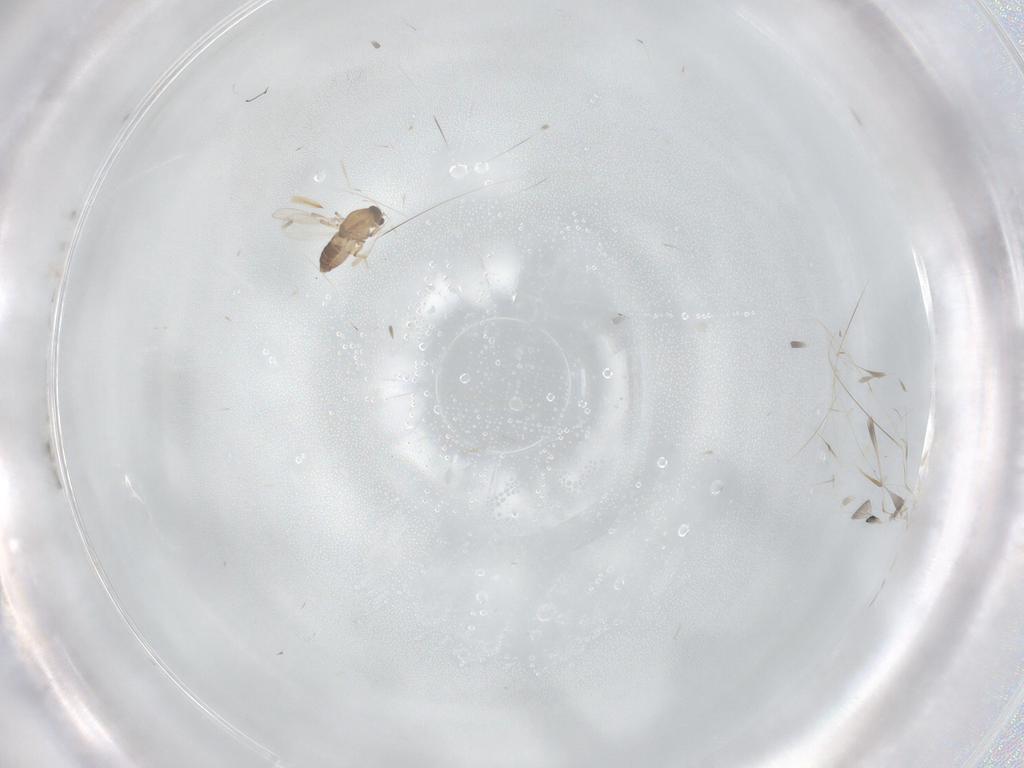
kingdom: Animalia
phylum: Arthropoda
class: Insecta
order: Diptera
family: Chironomidae
